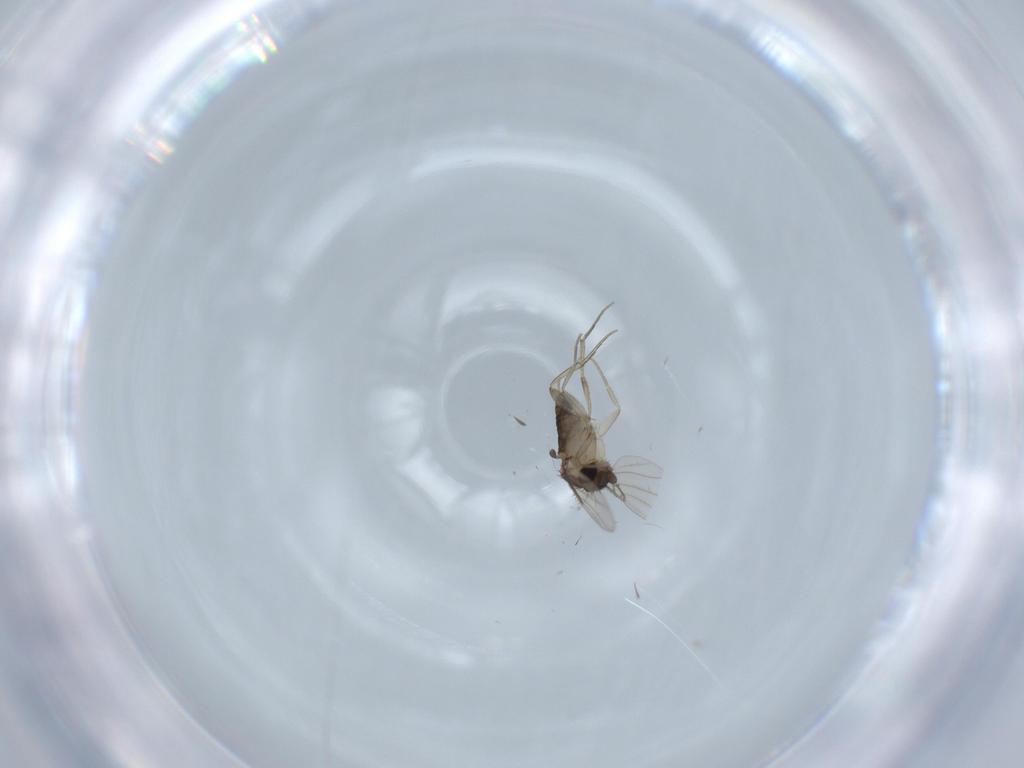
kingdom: Animalia
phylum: Arthropoda
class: Insecta
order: Diptera
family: Phoridae
